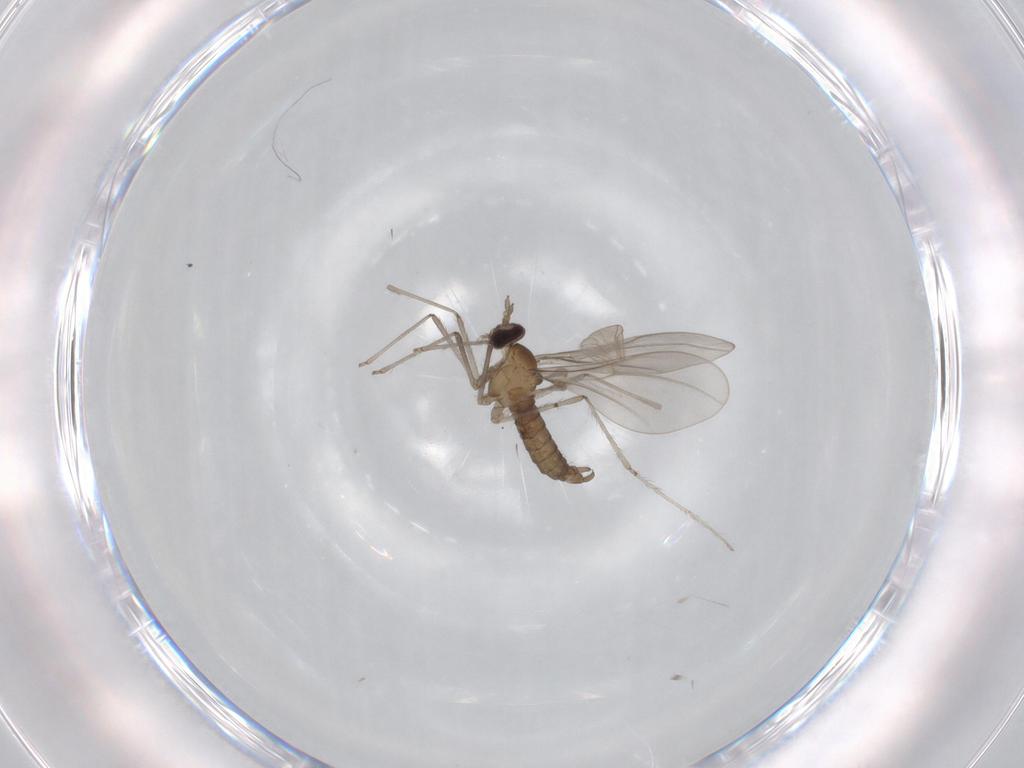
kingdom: Animalia
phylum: Arthropoda
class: Insecta
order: Diptera
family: Chironomidae
